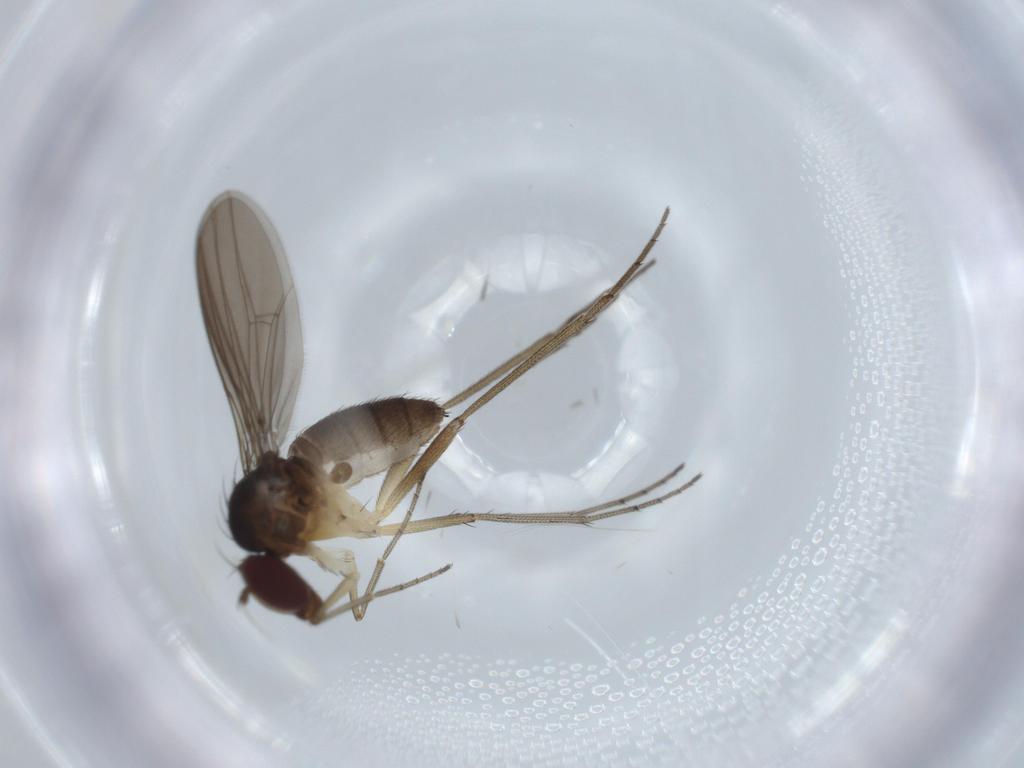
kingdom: Animalia
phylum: Arthropoda
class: Insecta
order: Diptera
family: Dolichopodidae
